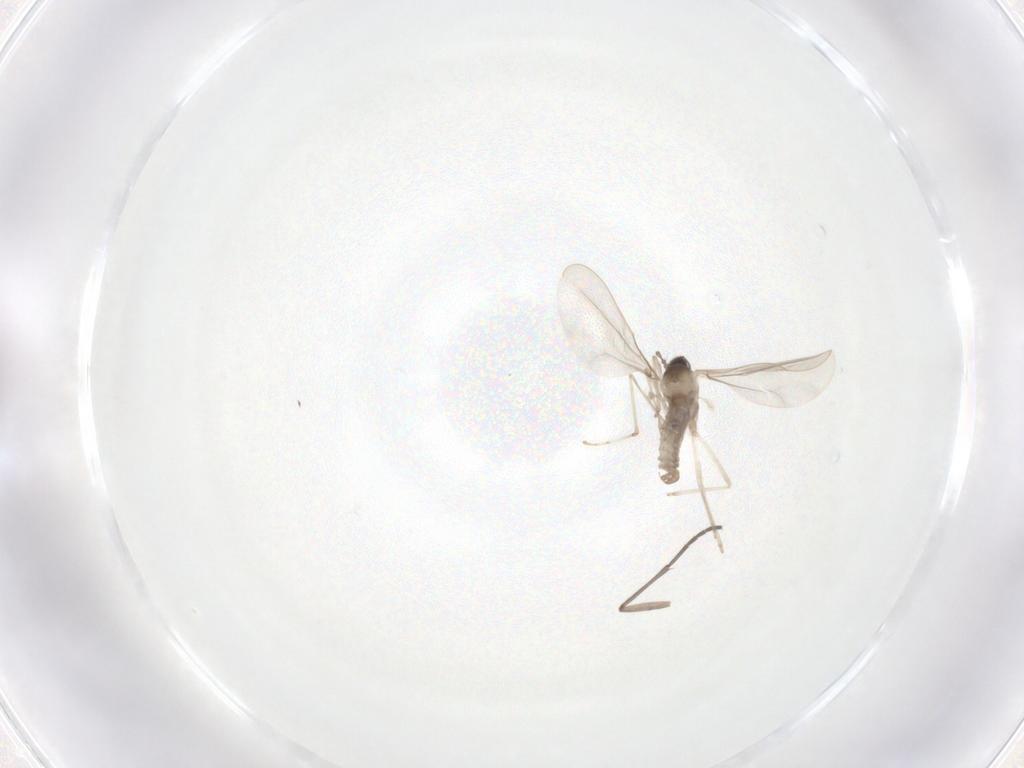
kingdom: Animalia
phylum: Arthropoda
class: Insecta
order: Diptera
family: Cecidomyiidae
